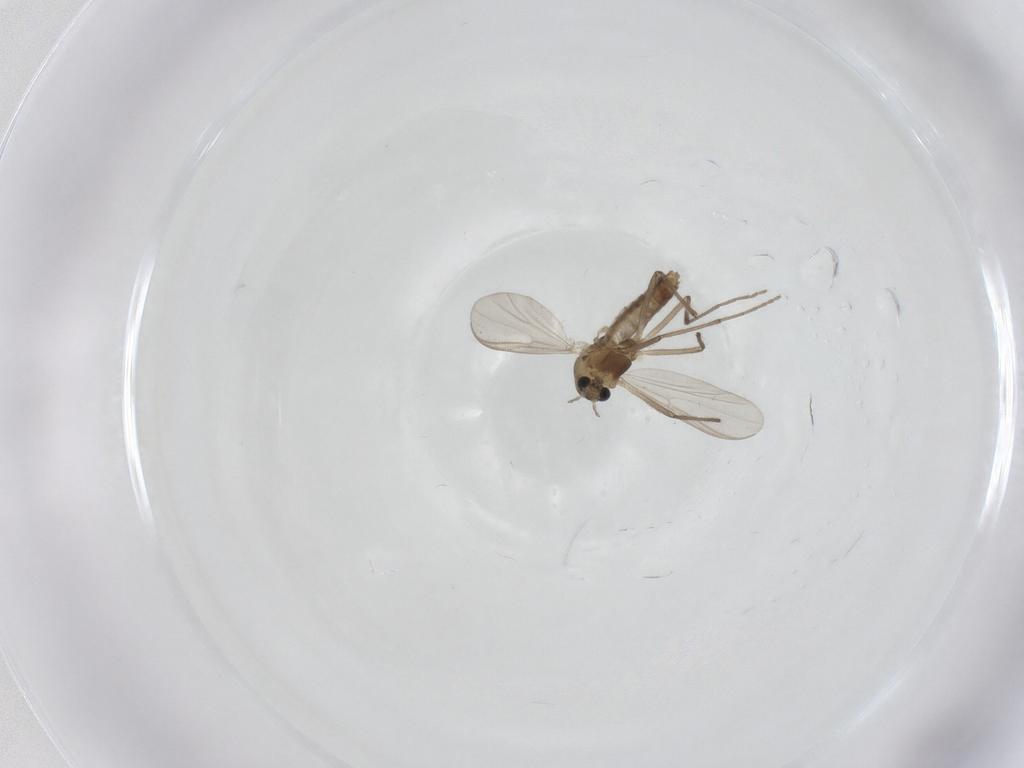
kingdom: Animalia
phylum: Arthropoda
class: Insecta
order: Diptera
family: Chironomidae
